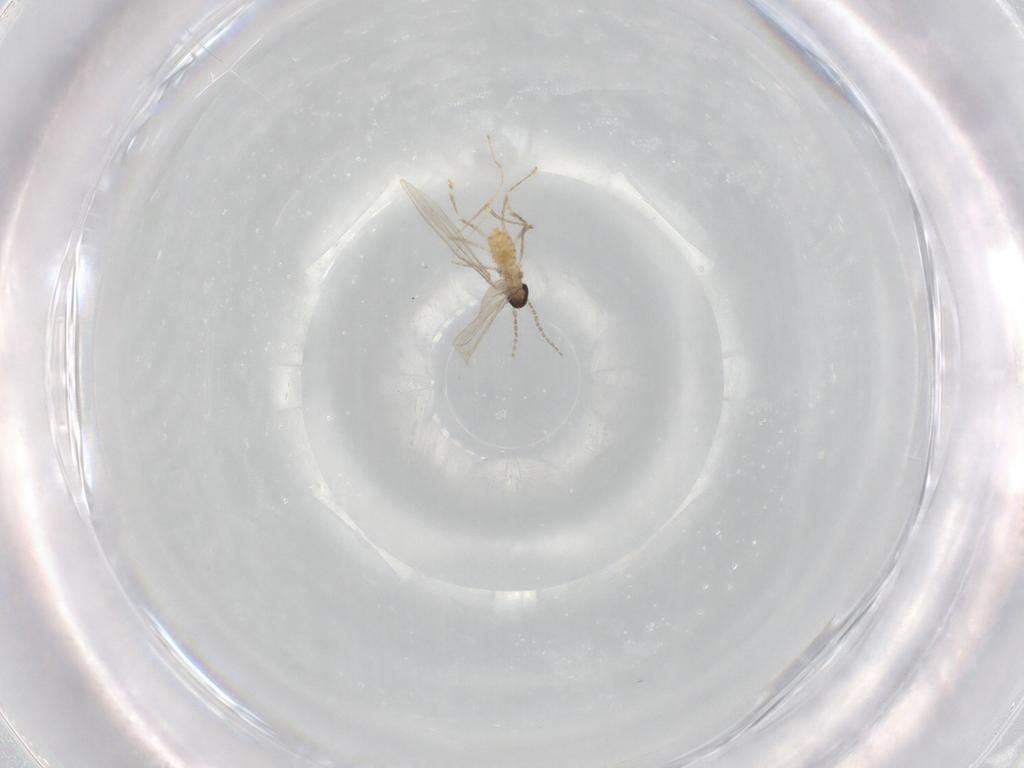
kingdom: Animalia
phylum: Arthropoda
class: Insecta
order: Diptera
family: Cecidomyiidae
